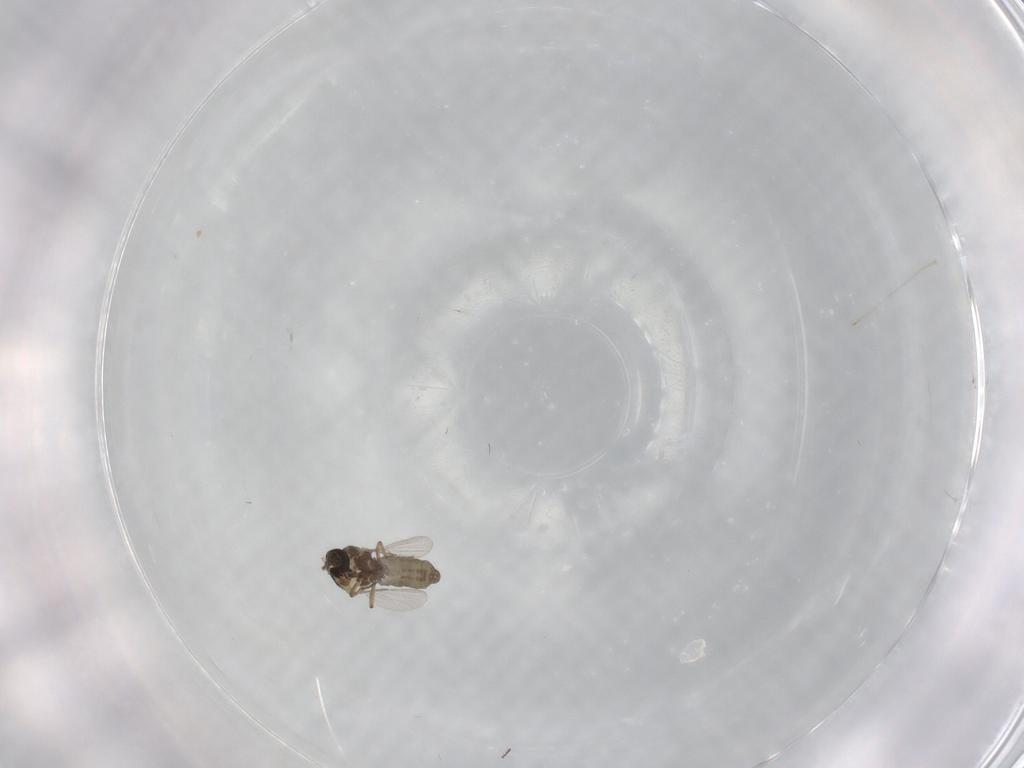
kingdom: Animalia
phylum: Arthropoda
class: Insecta
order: Diptera
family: Ceratopogonidae
